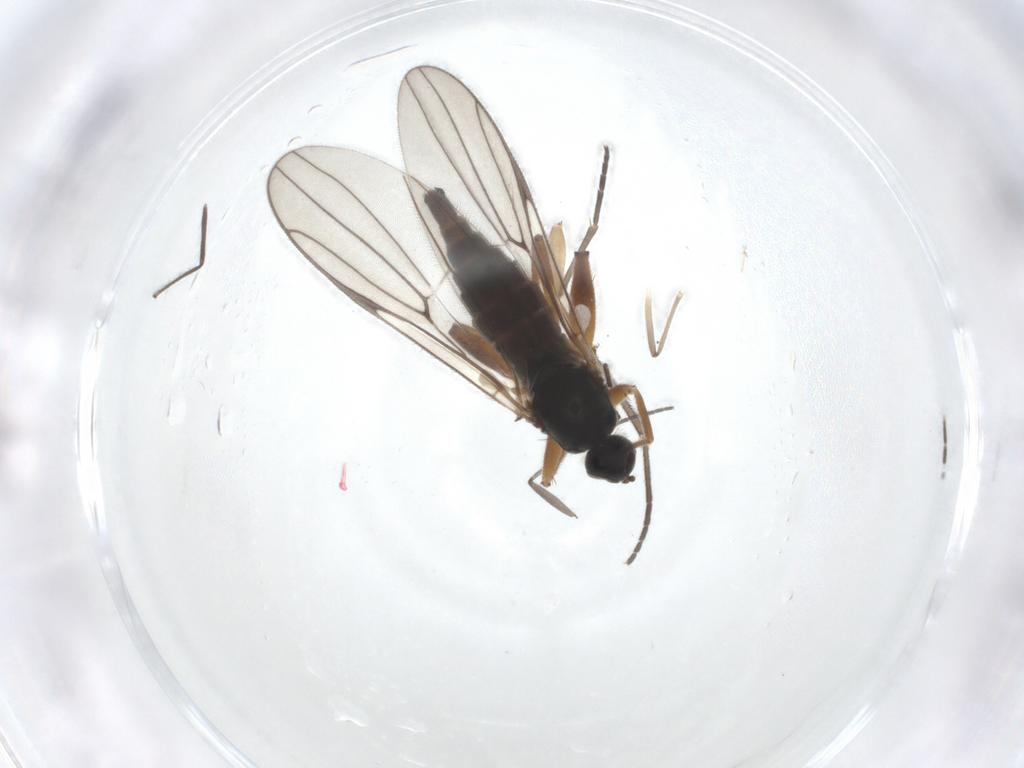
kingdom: Animalia
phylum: Arthropoda
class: Insecta
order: Diptera
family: Hybotidae
